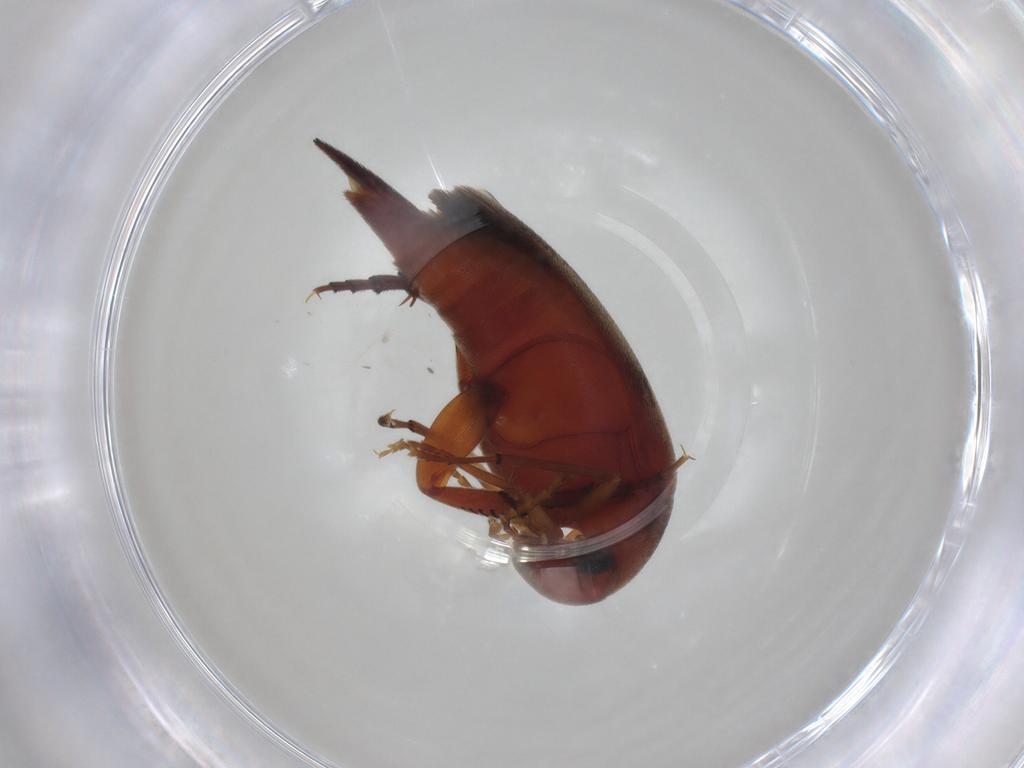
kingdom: Animalia
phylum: Arthropoda
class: Insecta
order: Coleoptera
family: Mordellidae
